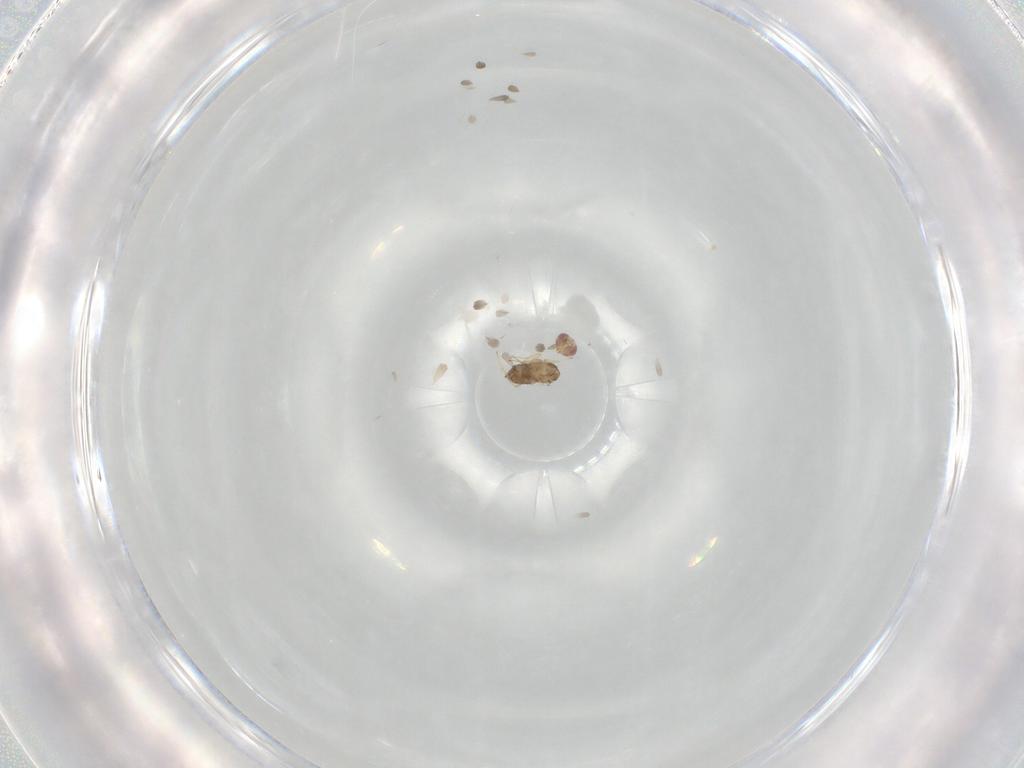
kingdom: Animalia
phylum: Arthropoda
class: Insecta
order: Hymenoptera
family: Trichogrammatidae
